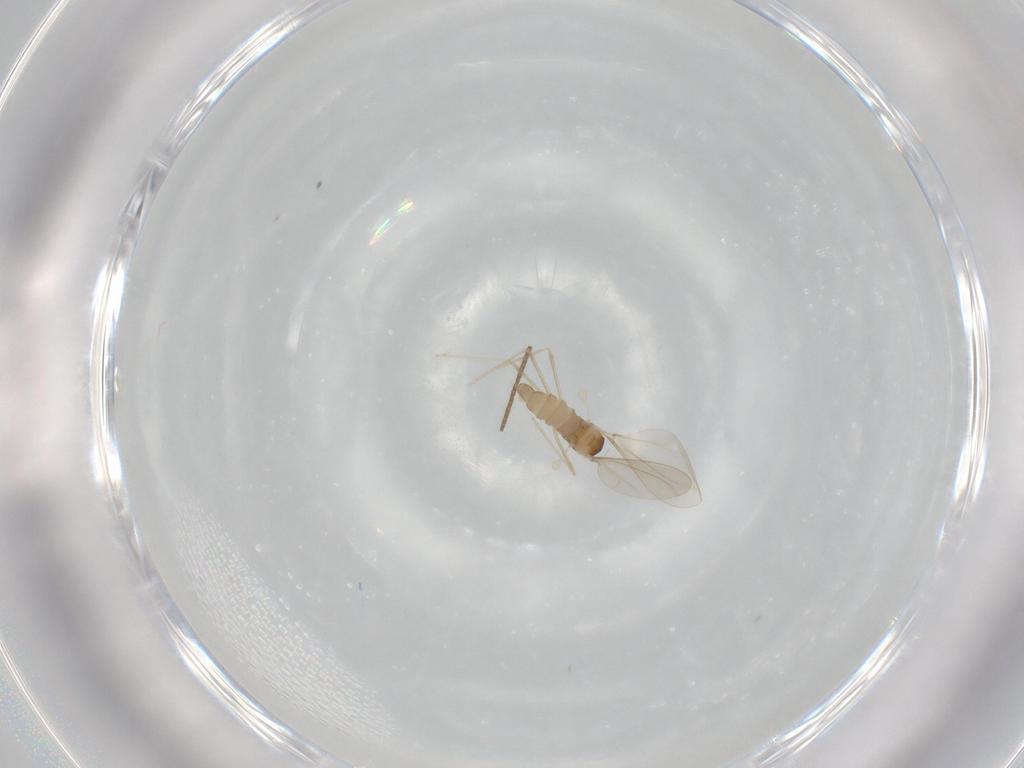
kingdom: Animalia
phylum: Arthropoda
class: Insecta
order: Diptera
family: Cecidomyiidae
